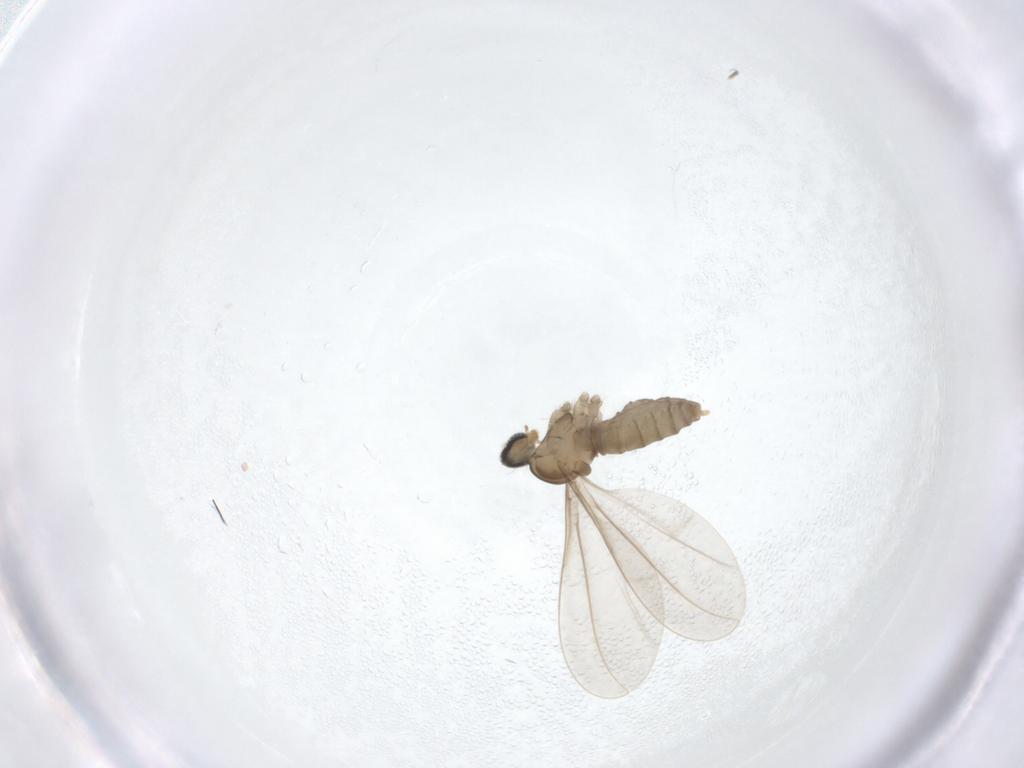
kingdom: Animalia
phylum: Arthropoda
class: Insecta
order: Diptera
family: Cecidomyiidae
